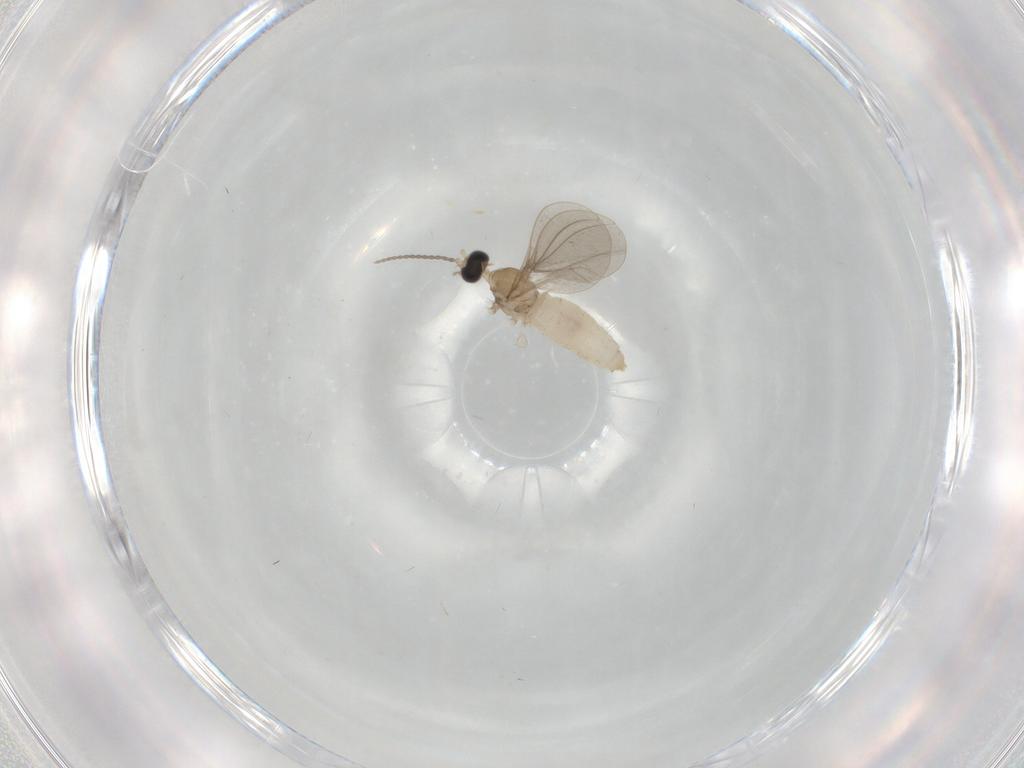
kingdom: Animalia
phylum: Arthropoda
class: Insecta
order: Diptera
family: Cecidomyiidae
